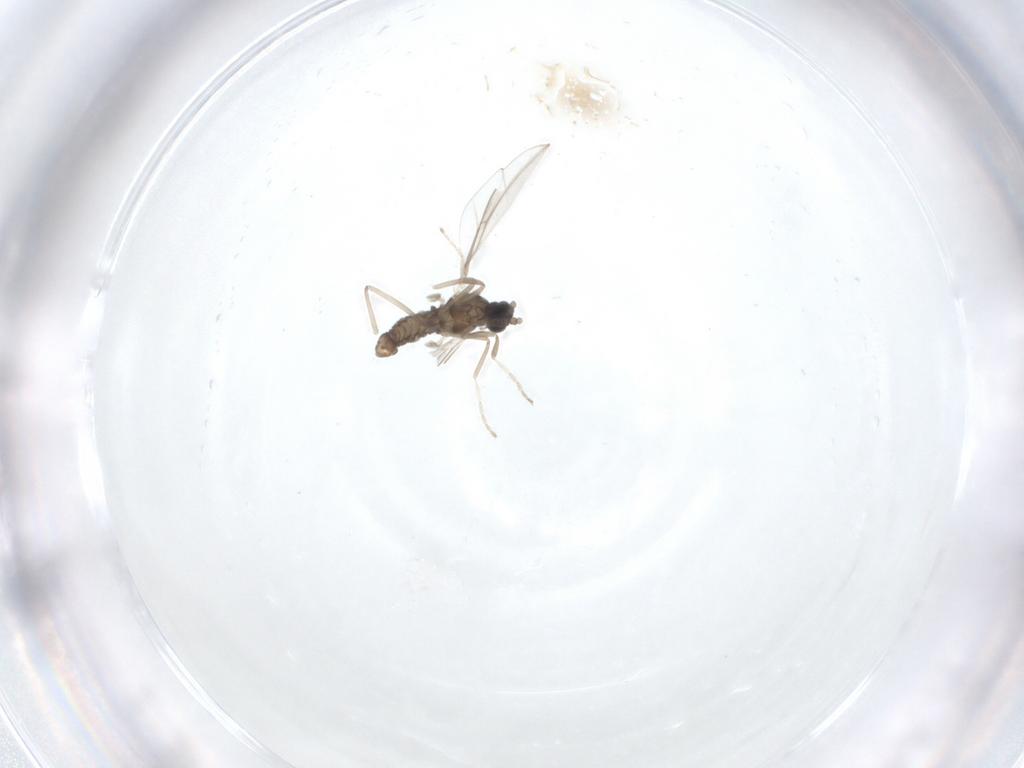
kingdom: Animalia
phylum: Arthropoda
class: Insecta
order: Diptera
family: Cecidomyiidae
